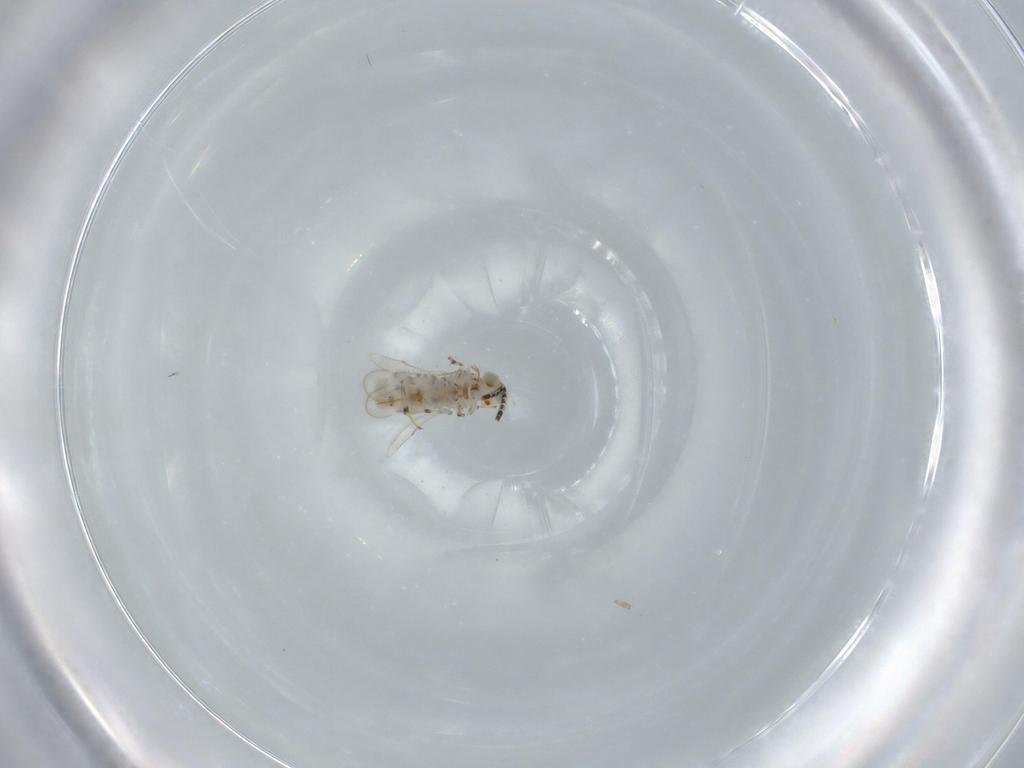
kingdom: Animalia
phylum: Arthropoda
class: Insecta
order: Hymenoptera
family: Aphelinidae
